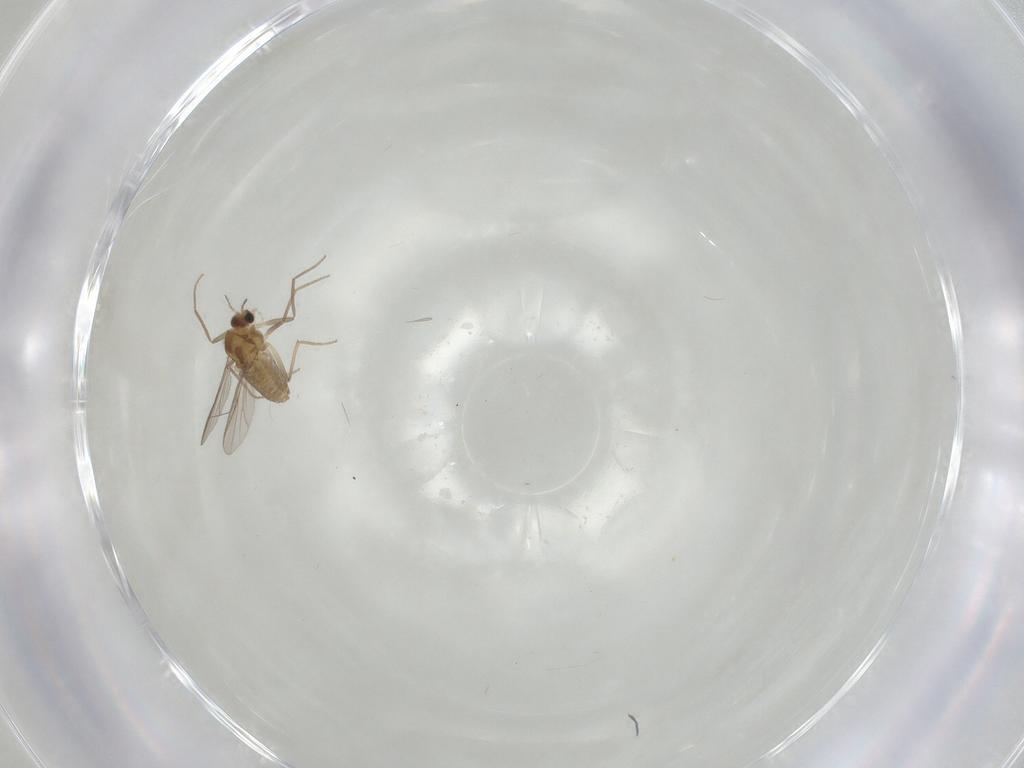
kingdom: Animalia
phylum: Arthropoda
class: Insecta
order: Diptera
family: Chironomidae
